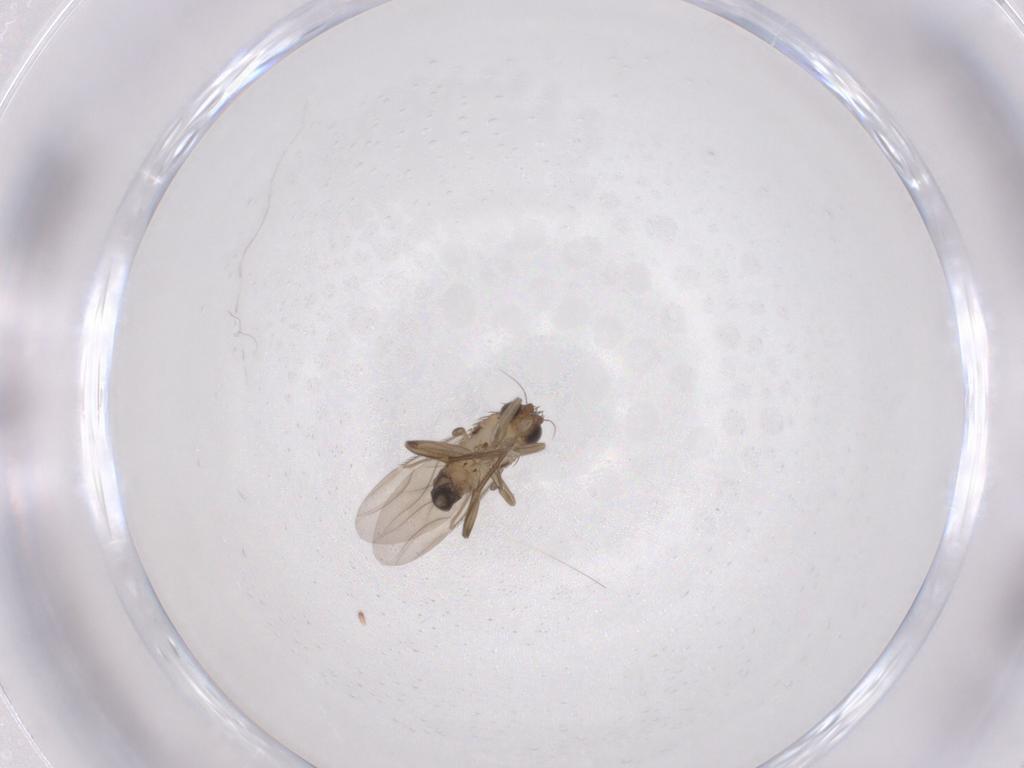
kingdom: Animalia
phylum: Arthropoda
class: Insecta
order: Diptera
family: Phoridae
